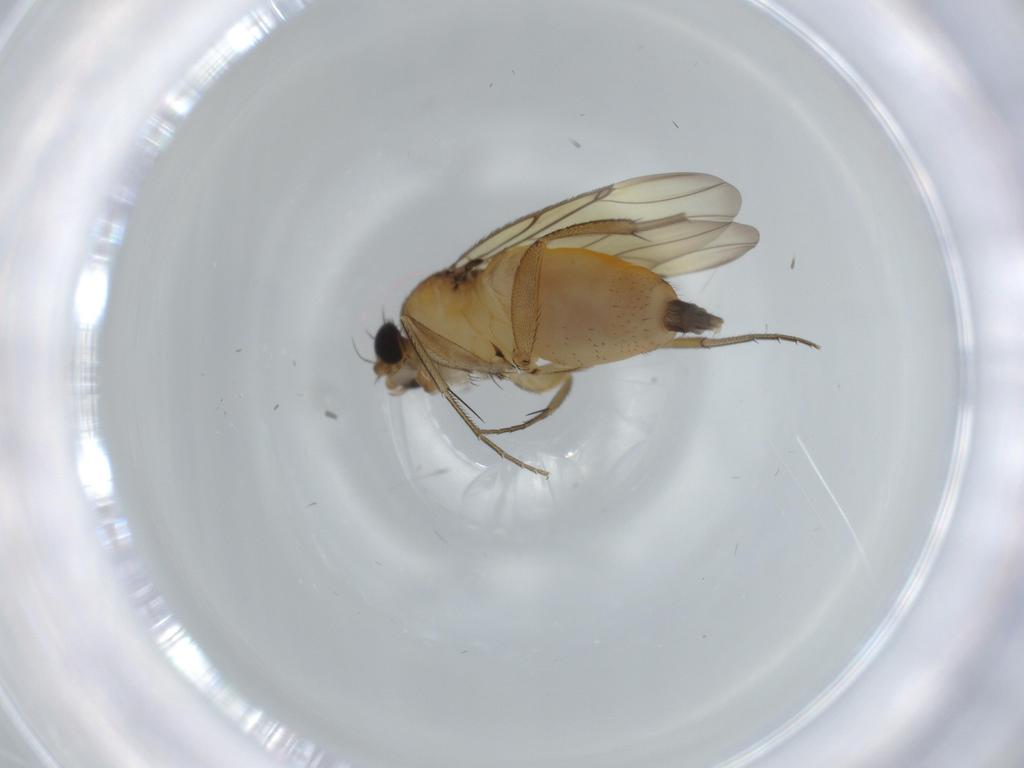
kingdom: Animalia
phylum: Arthropoda
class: Insecta
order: Diptera
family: Phoridae
